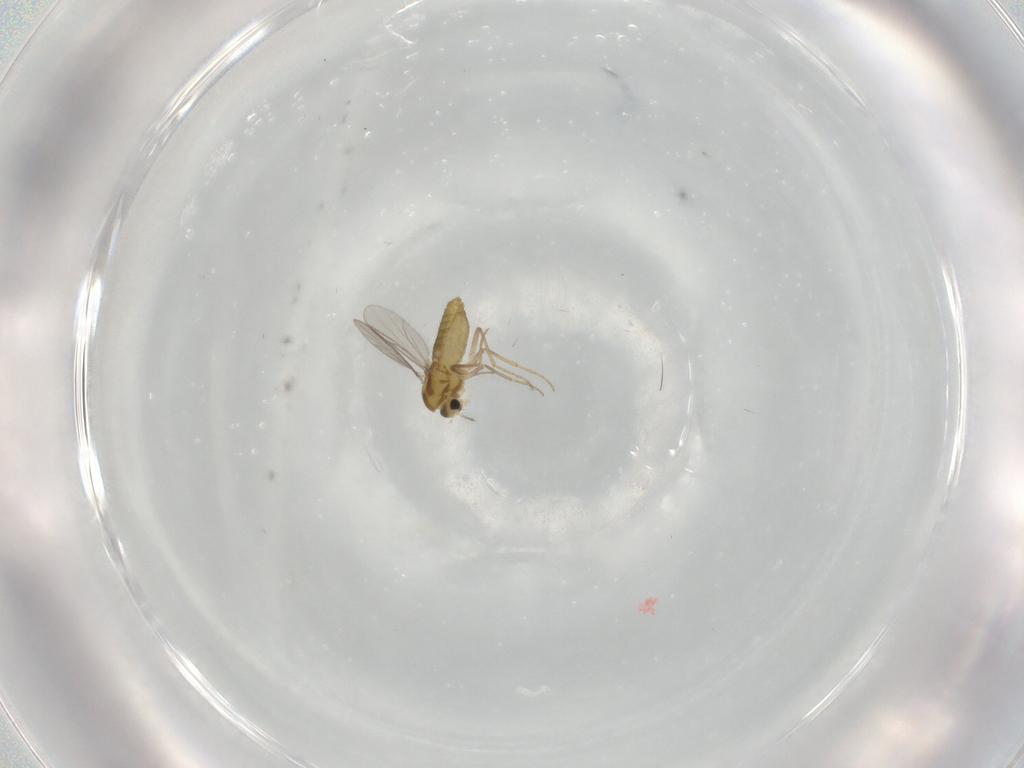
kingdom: Animalia
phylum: Arthropoda
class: Insecta
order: Diptera
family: Chironomidae
